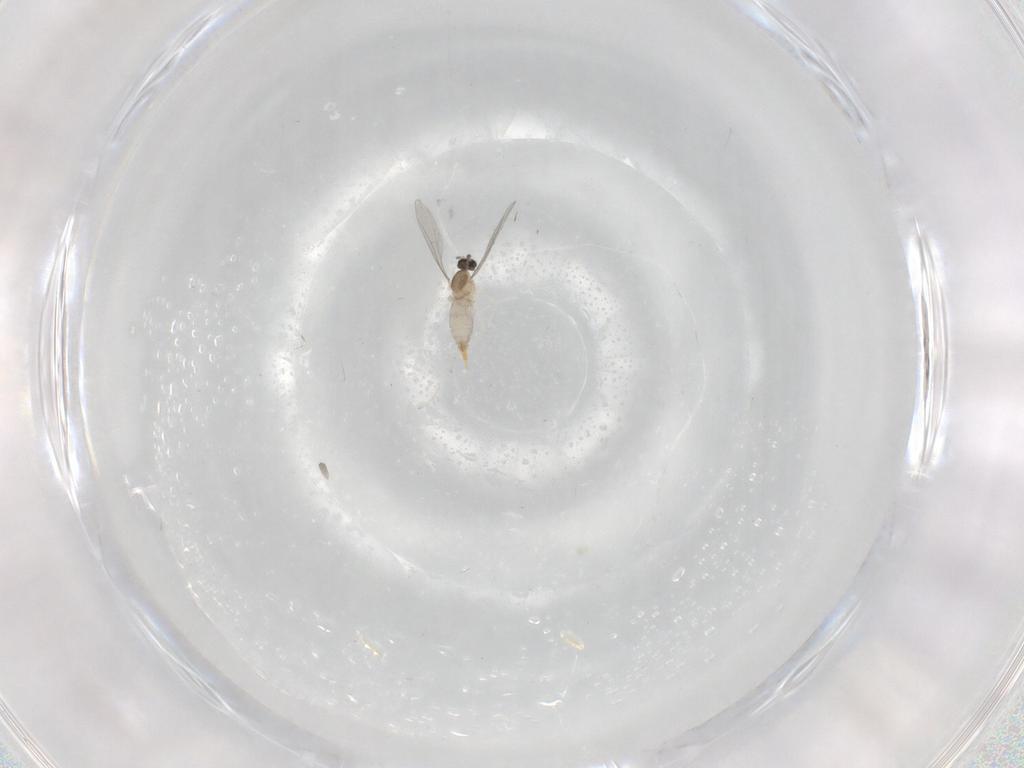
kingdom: Animalia
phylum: Arthropoda
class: Insecta
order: Diptera
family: Cecidomyiidae
